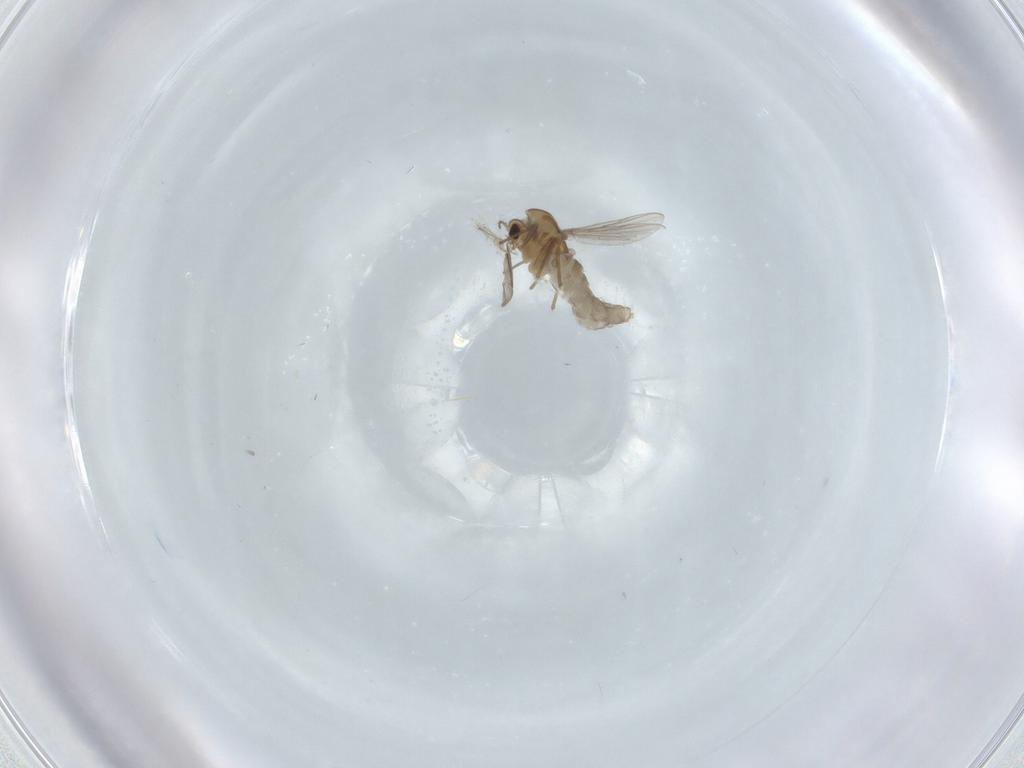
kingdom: Animalia
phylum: Arthropoda
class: Insecta
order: Diptera
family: Chironomidae
